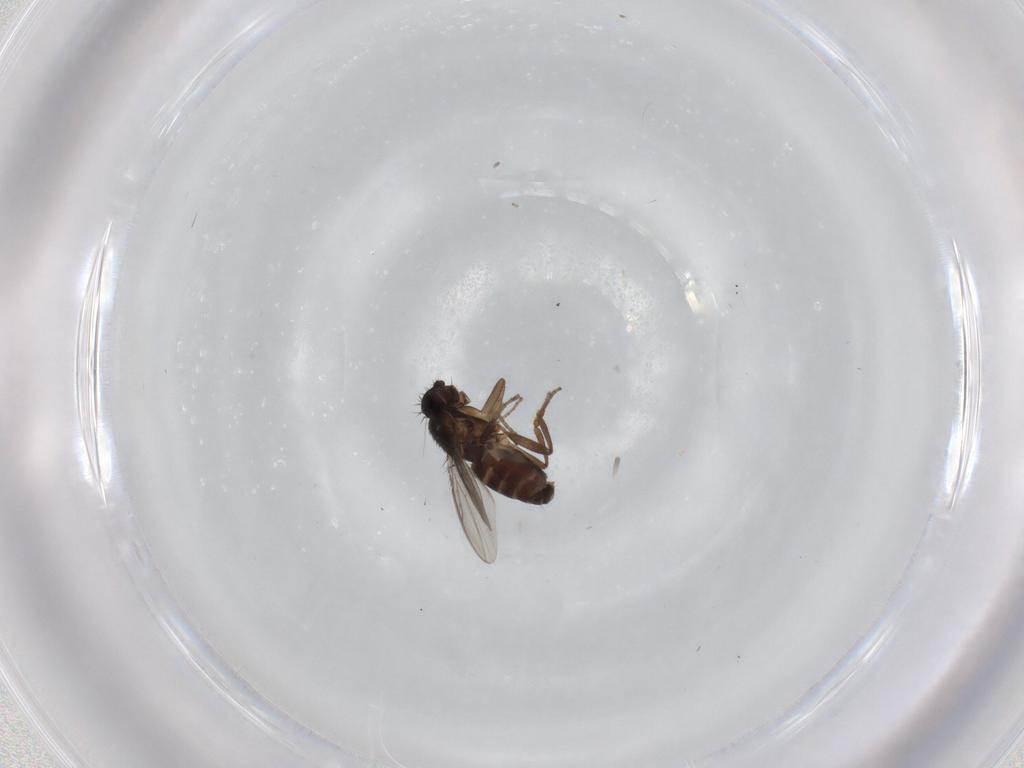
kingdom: Animalia
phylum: Arthropoda
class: Insecta
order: Diptera
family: Sphaeroceridae
